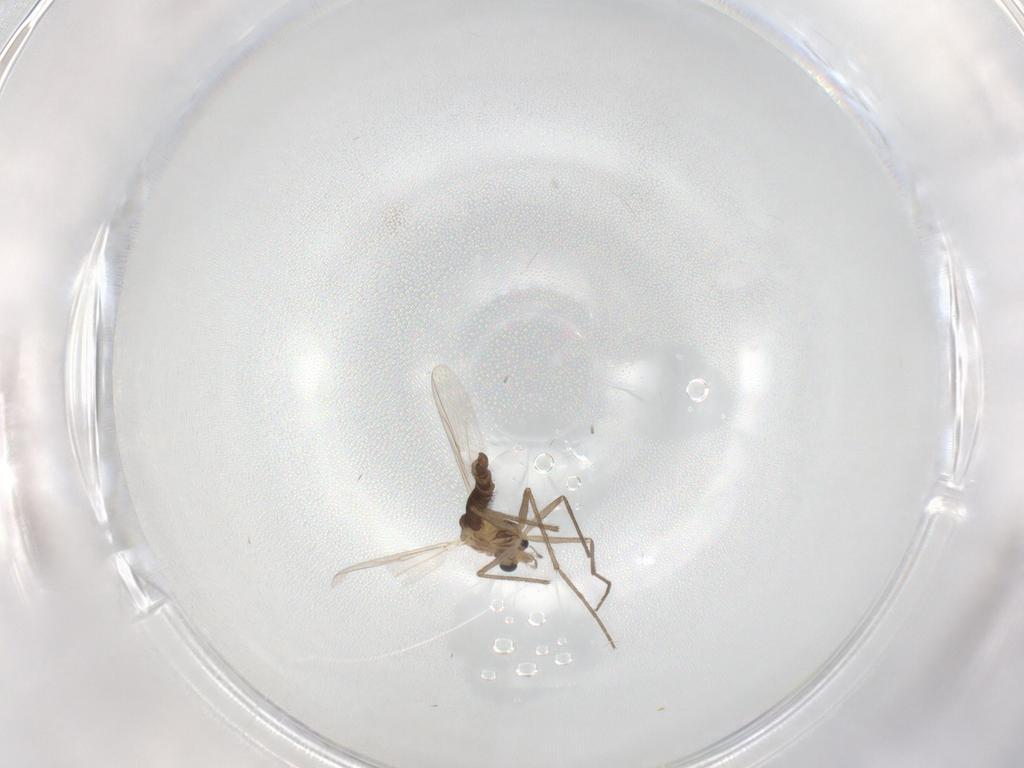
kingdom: Animalia
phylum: Arthropoda
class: Insecta
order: Diptera
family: Chironomidae
